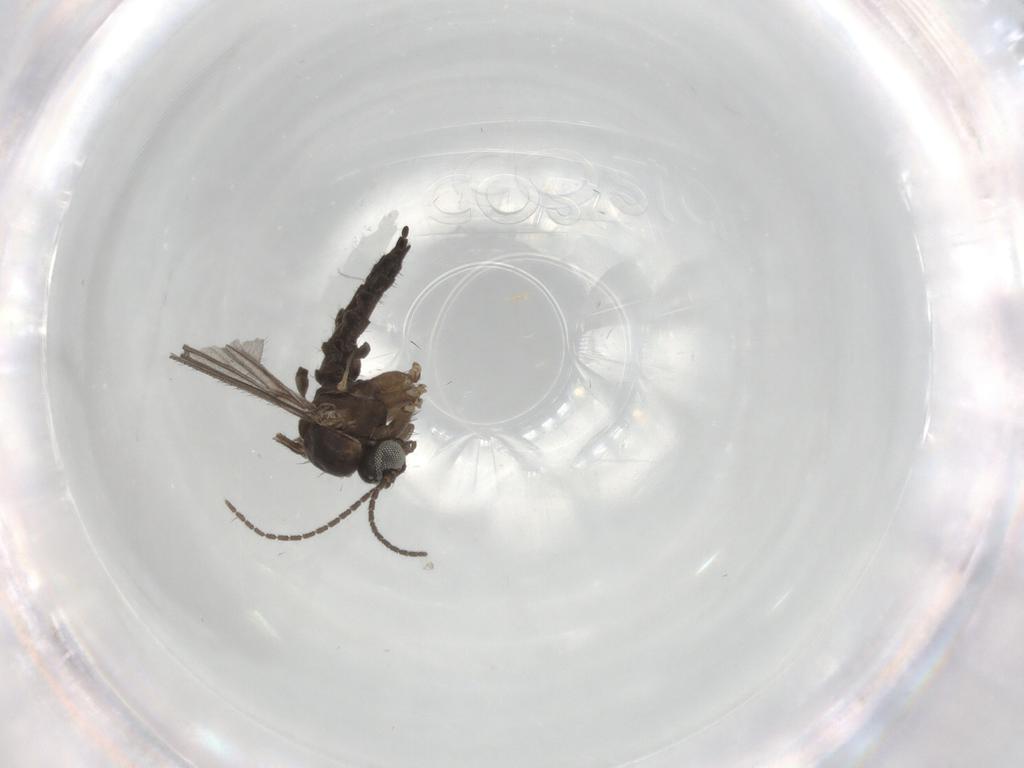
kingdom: Animalia
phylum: Arthropoda
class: Insecta
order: Diptera
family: Sciaridae
